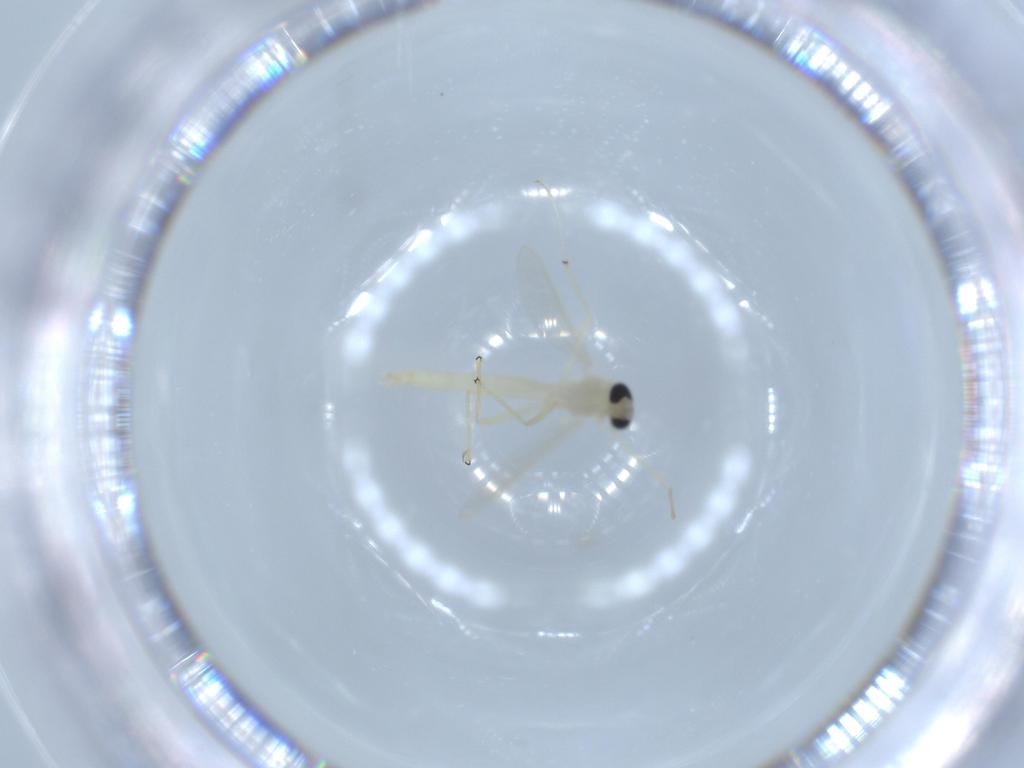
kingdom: Animalia
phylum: Arthropoda
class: Insecta
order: Diptera
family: Chironomidae
